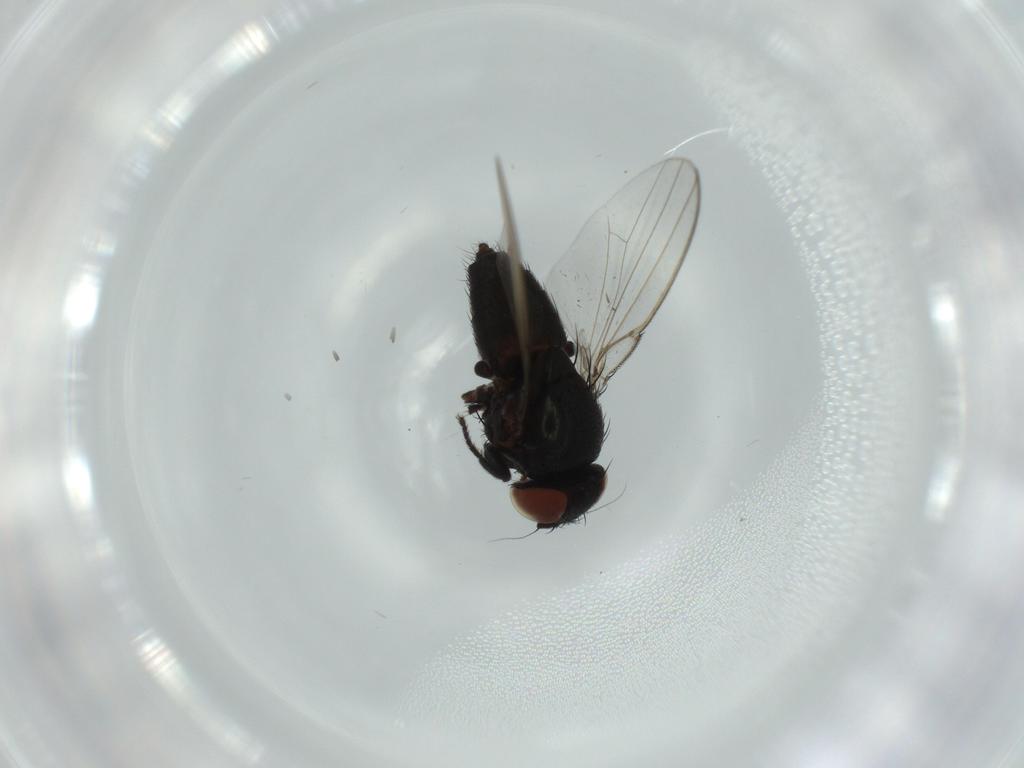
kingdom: Animalia
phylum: Arthropoda
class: Insecta
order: Diptera
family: Milichiidae
